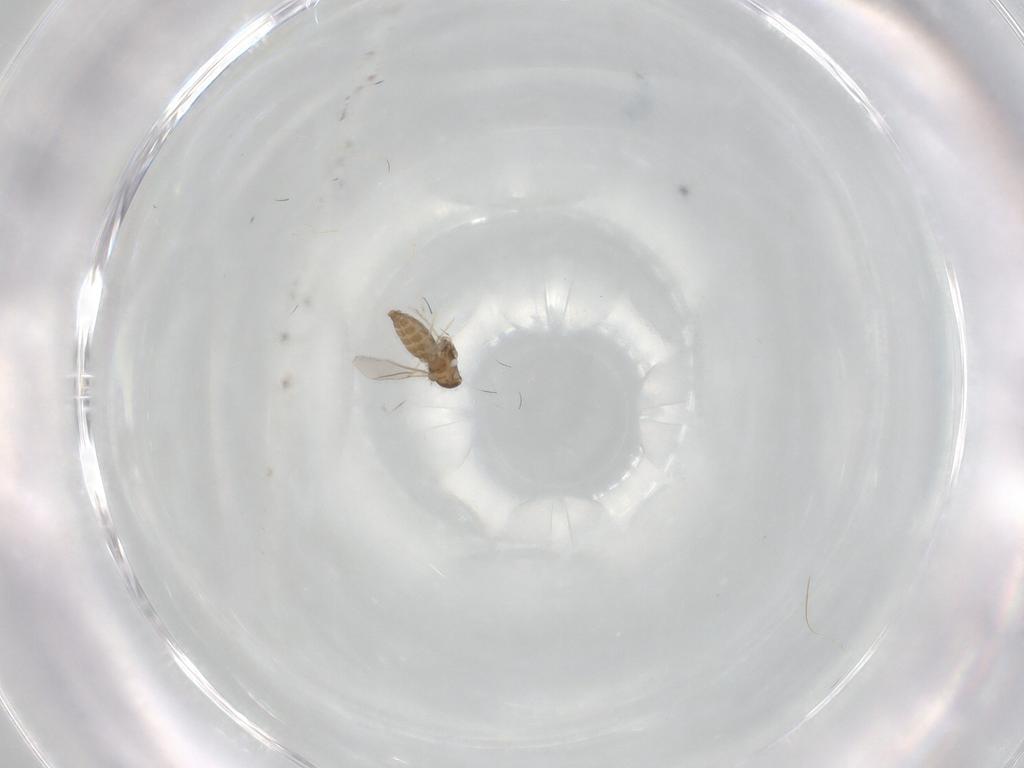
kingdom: Animalia
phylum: Arthropoda
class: Insecta
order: Diptera
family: Cecidomyiidae
